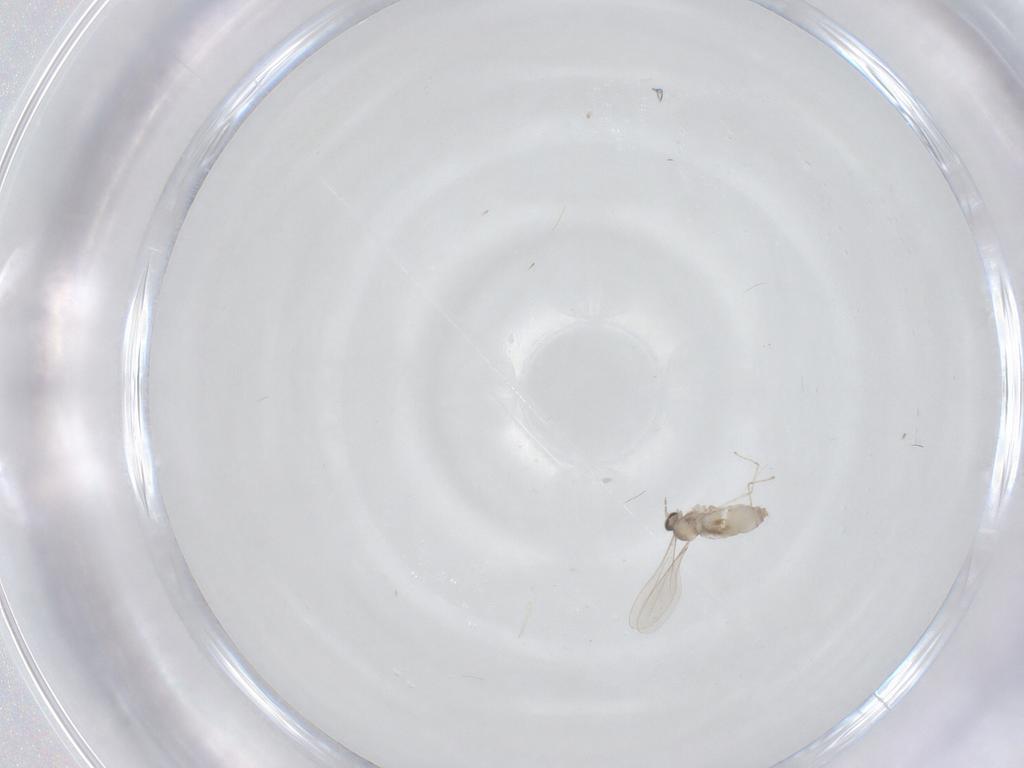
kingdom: Animalia
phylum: Arthropoda
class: Insecta
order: Diptera
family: Cecidomyiidae
